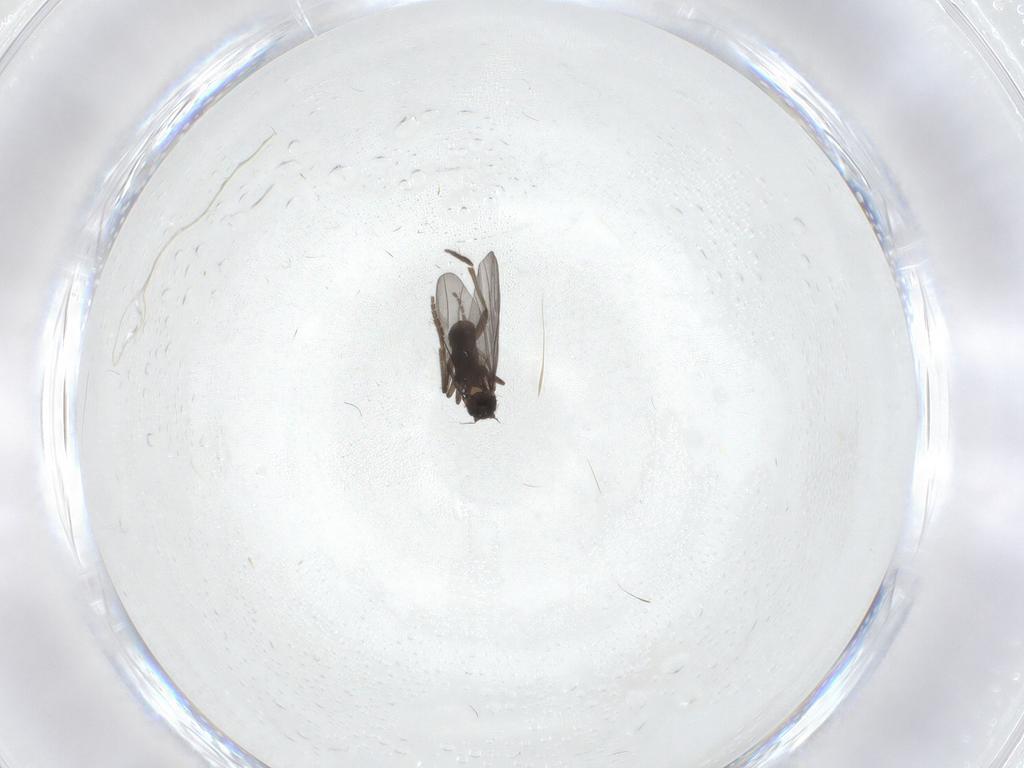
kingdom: Animalia
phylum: Arthropoda
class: Insecta
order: Diptera
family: Cecidomyiidae
